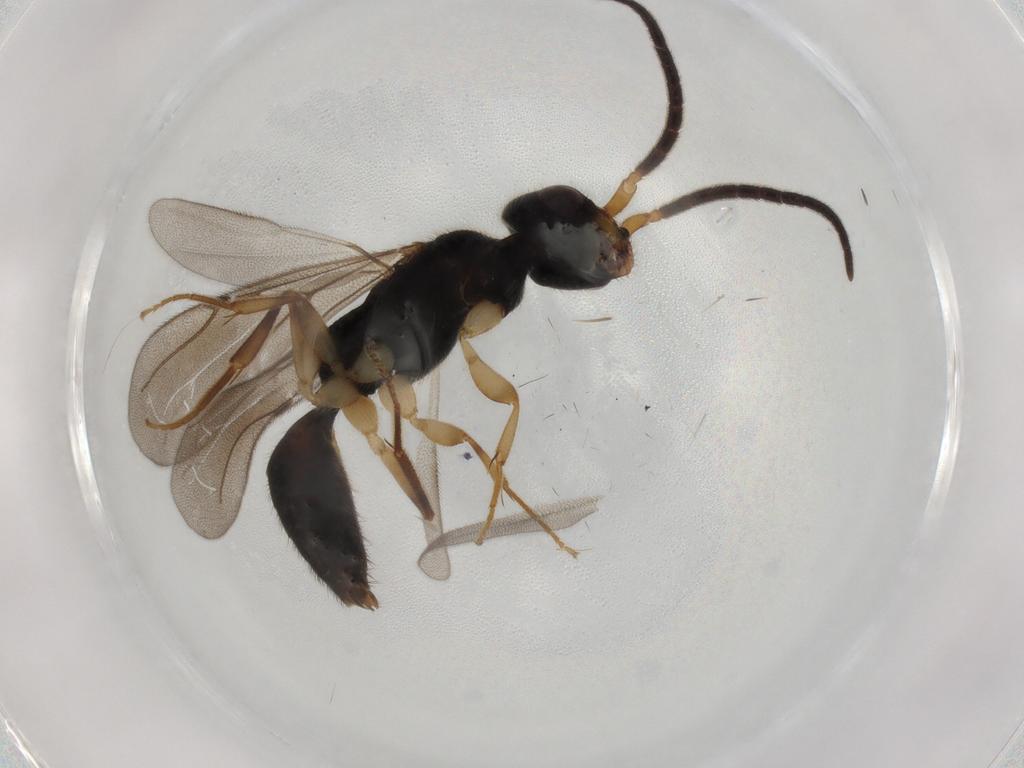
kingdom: Animalia
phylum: Arthropoda
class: Insecta
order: Hymenoptera
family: Bethylidae
